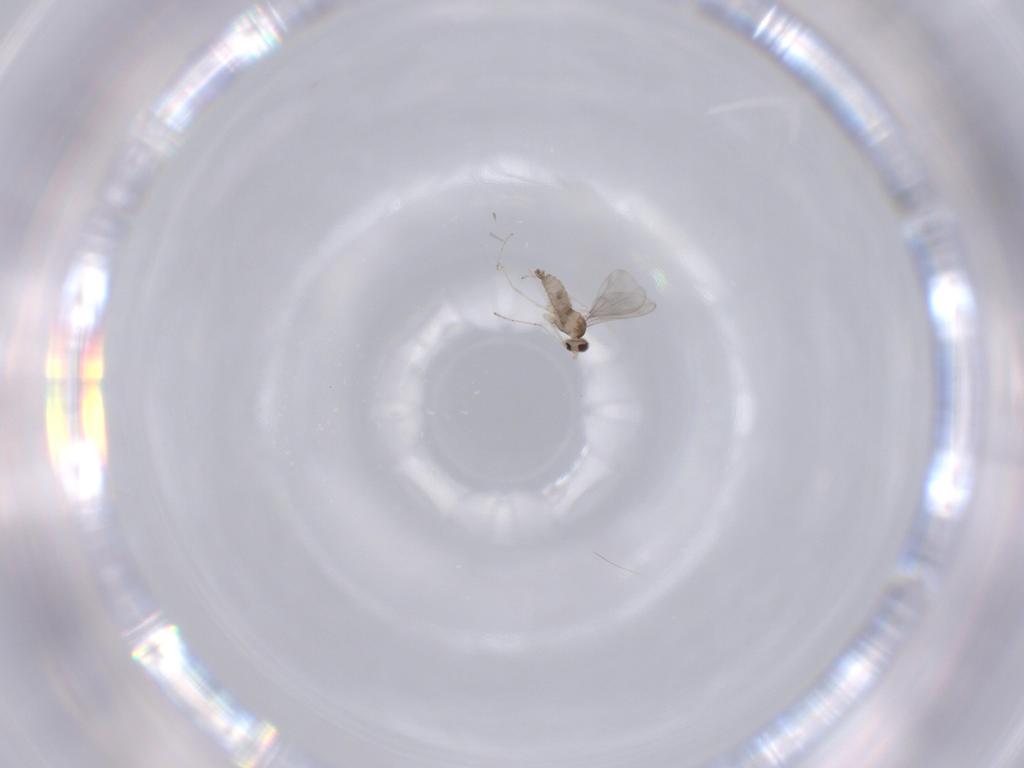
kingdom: Animalia
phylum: Arthropoda
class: Insecta
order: Diptera
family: Cecidomyiidae
